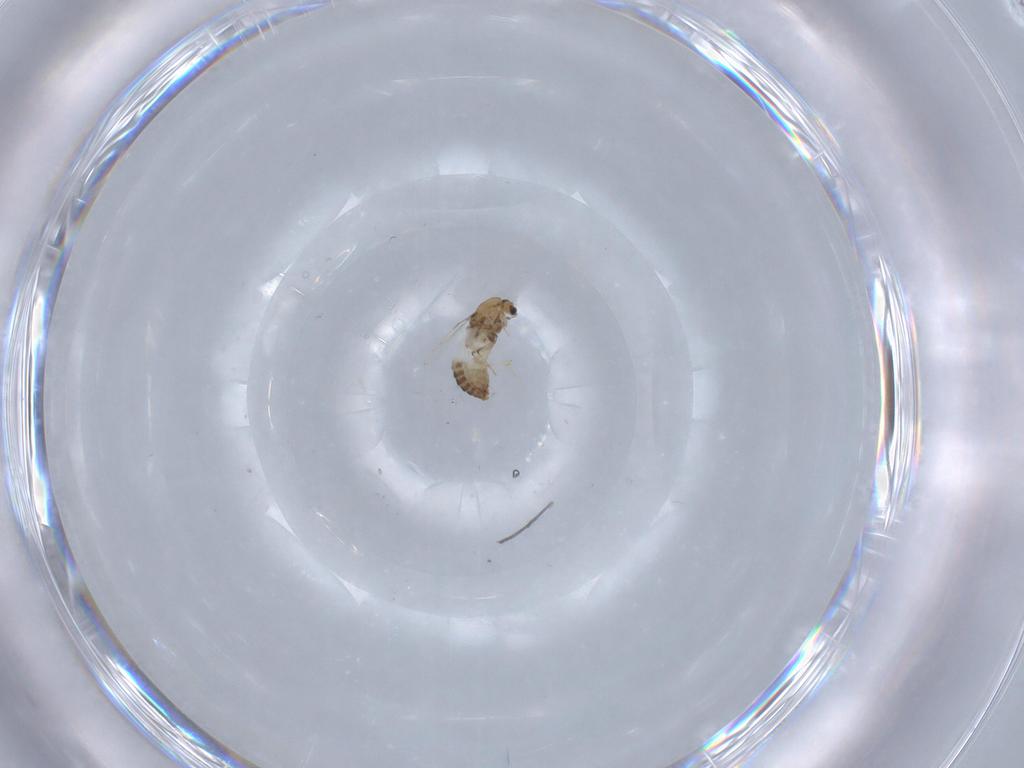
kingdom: Animalia
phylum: Arthropoda
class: Insecta
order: Diptera
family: Chironomidae
